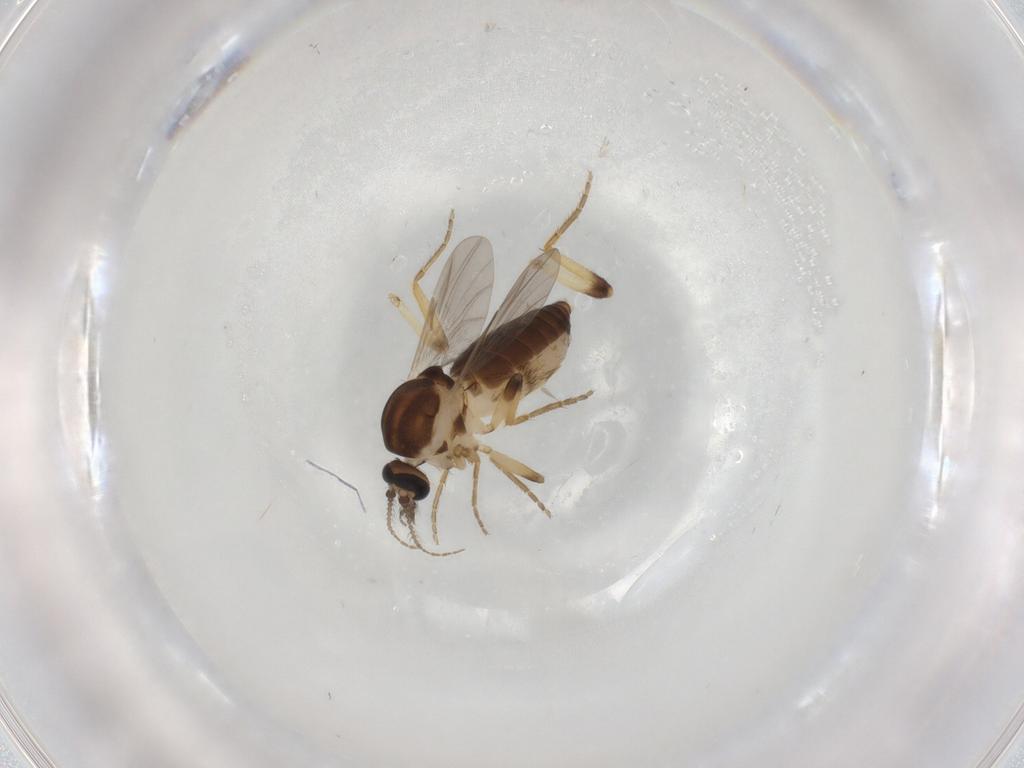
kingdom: Animalia
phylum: Arthropoda
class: Insecta
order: Diptera
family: Ceratopogonidae
